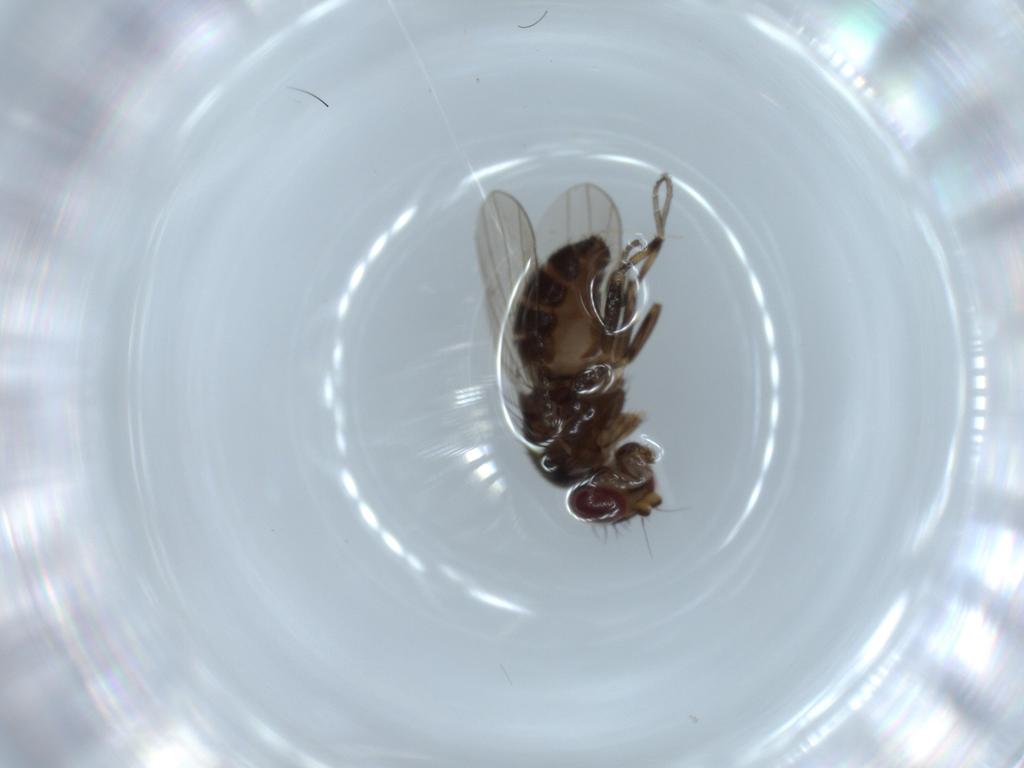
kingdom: Animalia
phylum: Arthropoda
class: Insecta
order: Diptera
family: Heleomyzidae
